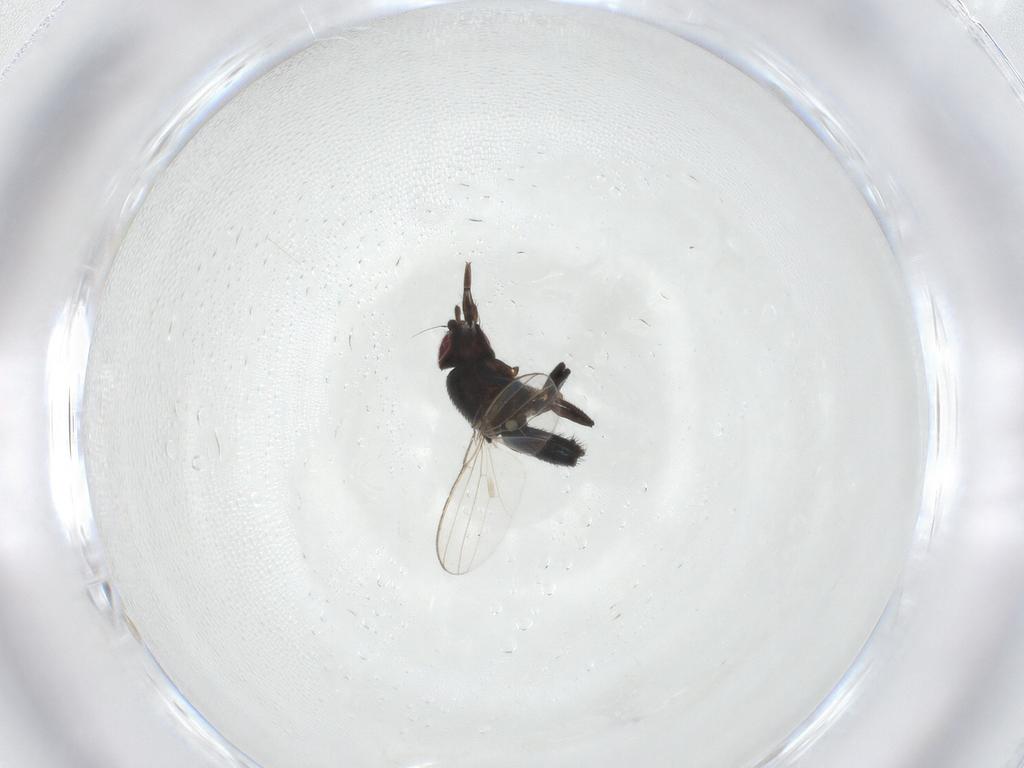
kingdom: Animalia
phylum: Arthropoda
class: Insecta
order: Diptera
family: Milichiidae
